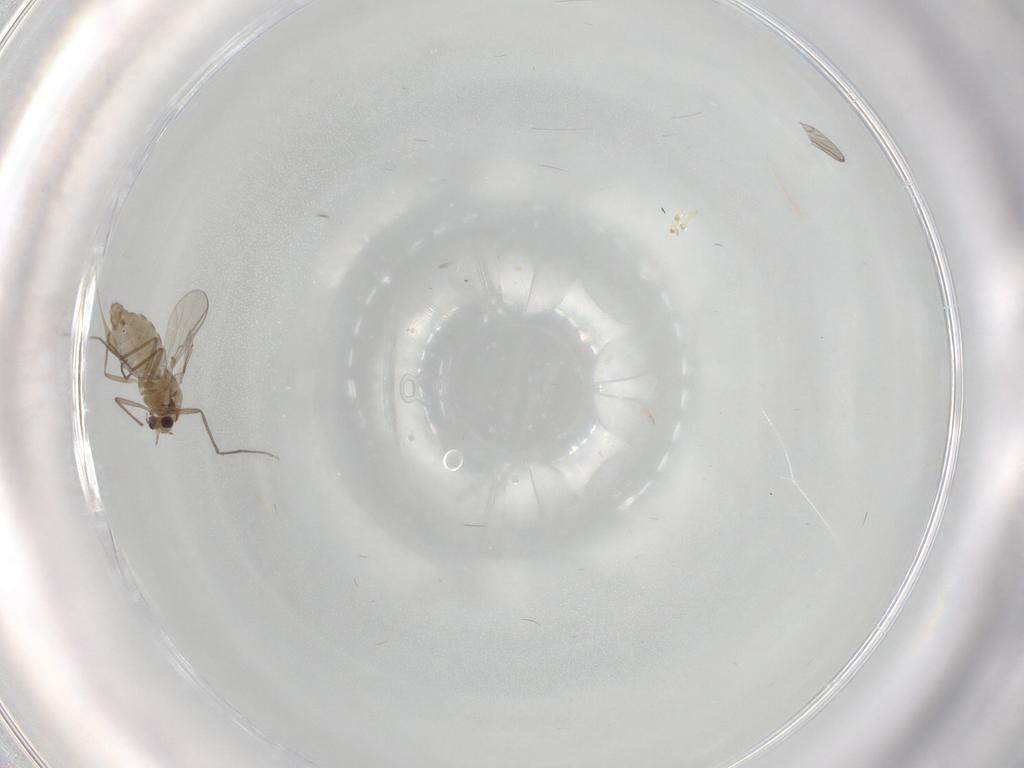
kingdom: Animalia
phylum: Arthropoda
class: Insecta
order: Diptera
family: Chironomidae
